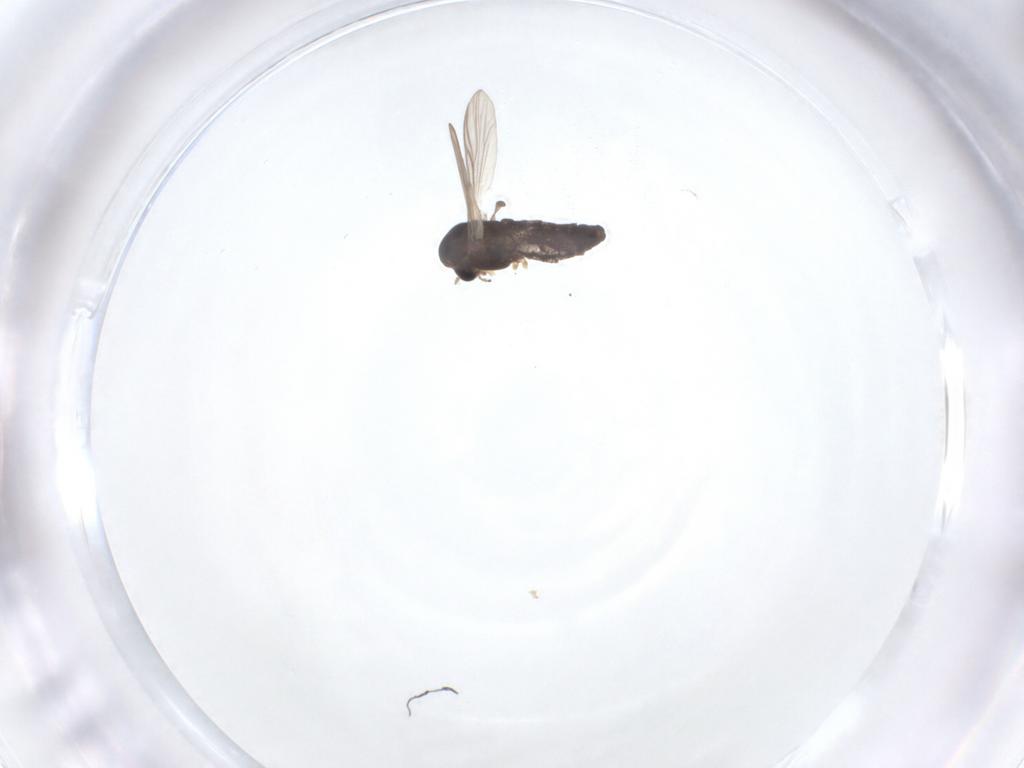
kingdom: Animalia
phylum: Arthropoda
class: Insecta
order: Diptera
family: Chironomidae
